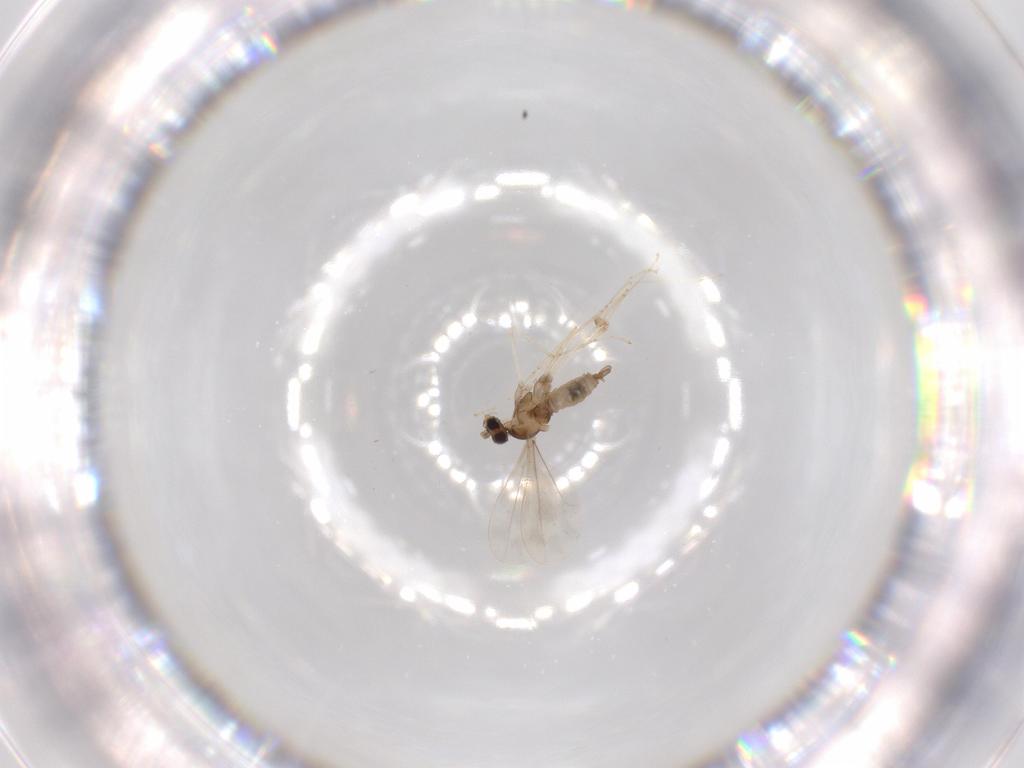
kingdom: Animalia
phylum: Arthropoda
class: Insecta
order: Diptera
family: Cecidomyiidae
